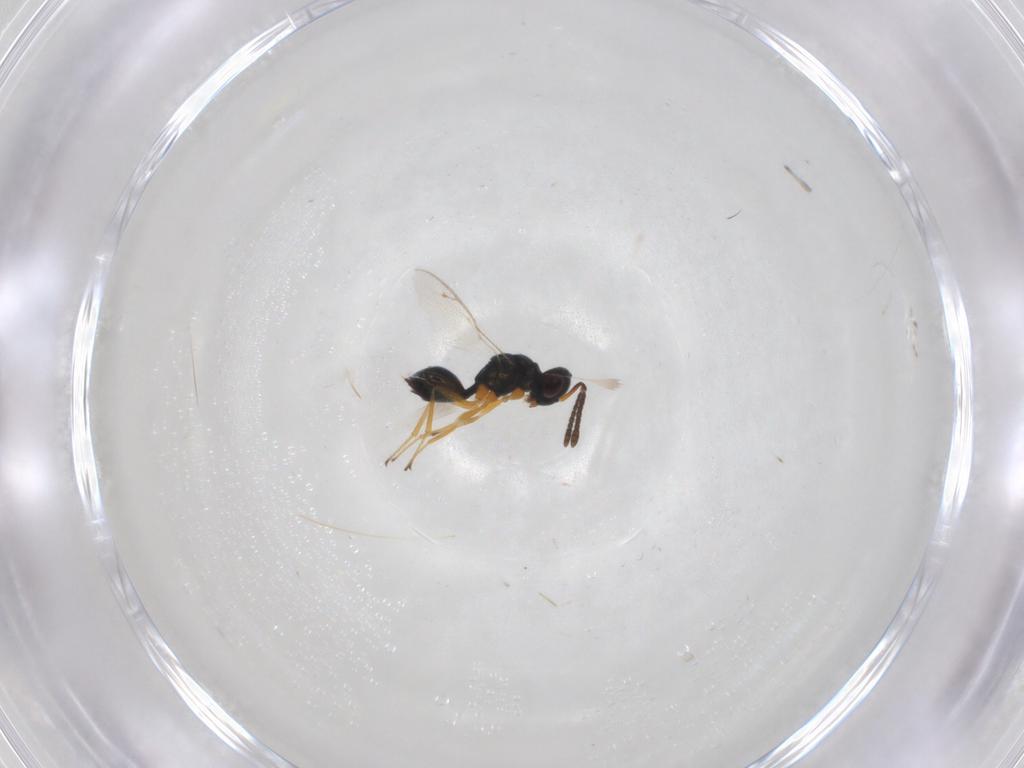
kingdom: Animalia
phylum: Arthropoda
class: Insecta
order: Hymenoptera
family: Pteromalidae
